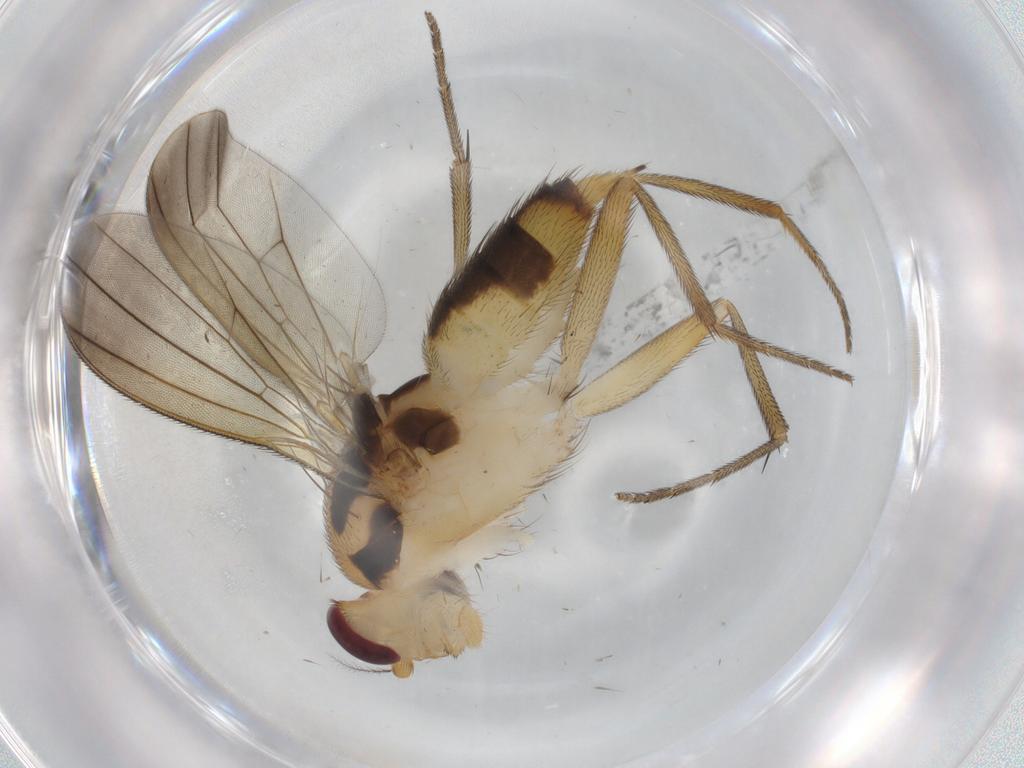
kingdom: Animalia
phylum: Arthropoda
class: Insecta
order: Diptera
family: Clusiidae
